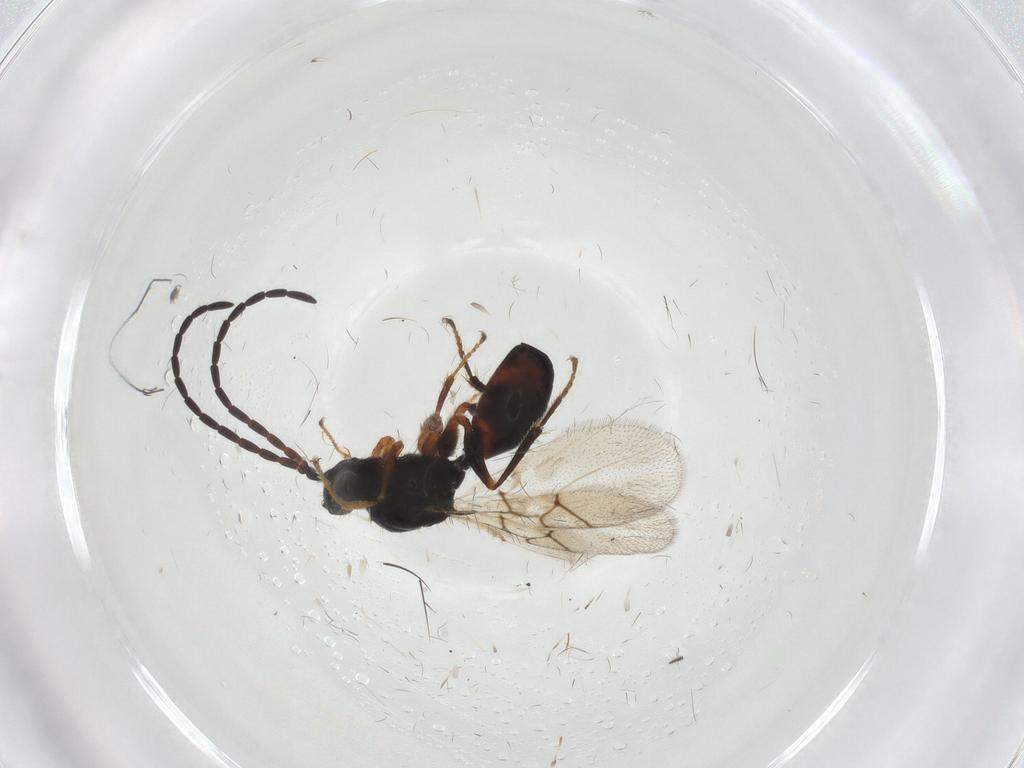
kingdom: Animalia
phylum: Arthropoda
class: Insecta
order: Hymenoptera
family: Figitidae
